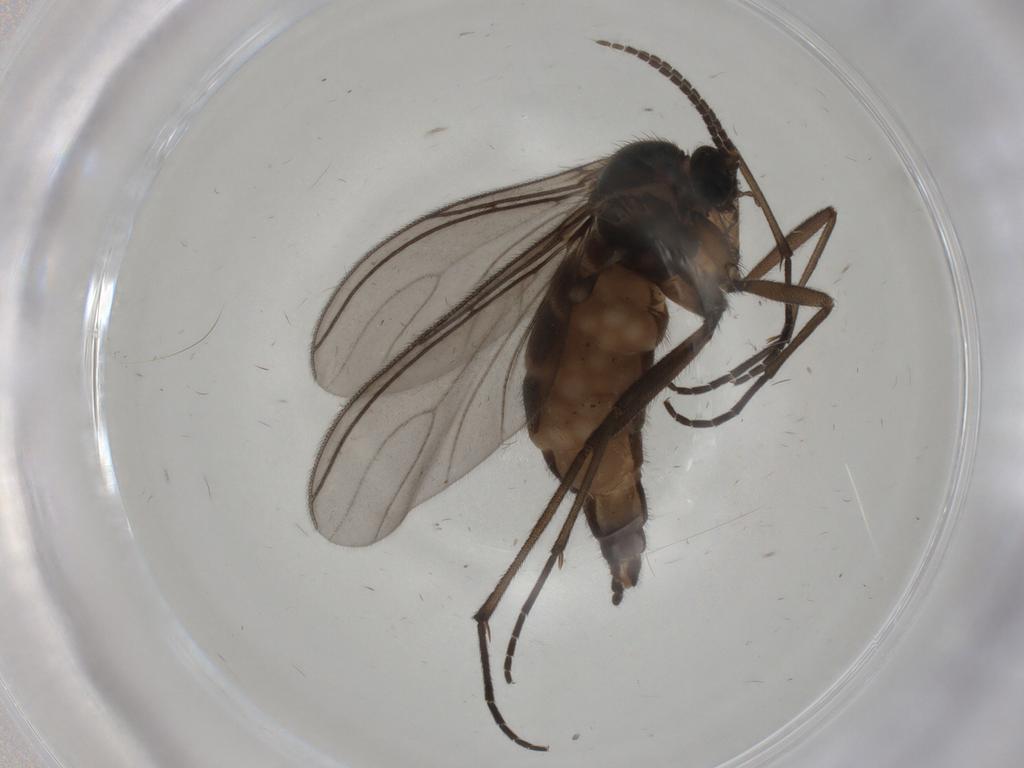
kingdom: Animalia
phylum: Arthropoda
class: Insecta
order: Diptera
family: Sciaridae
